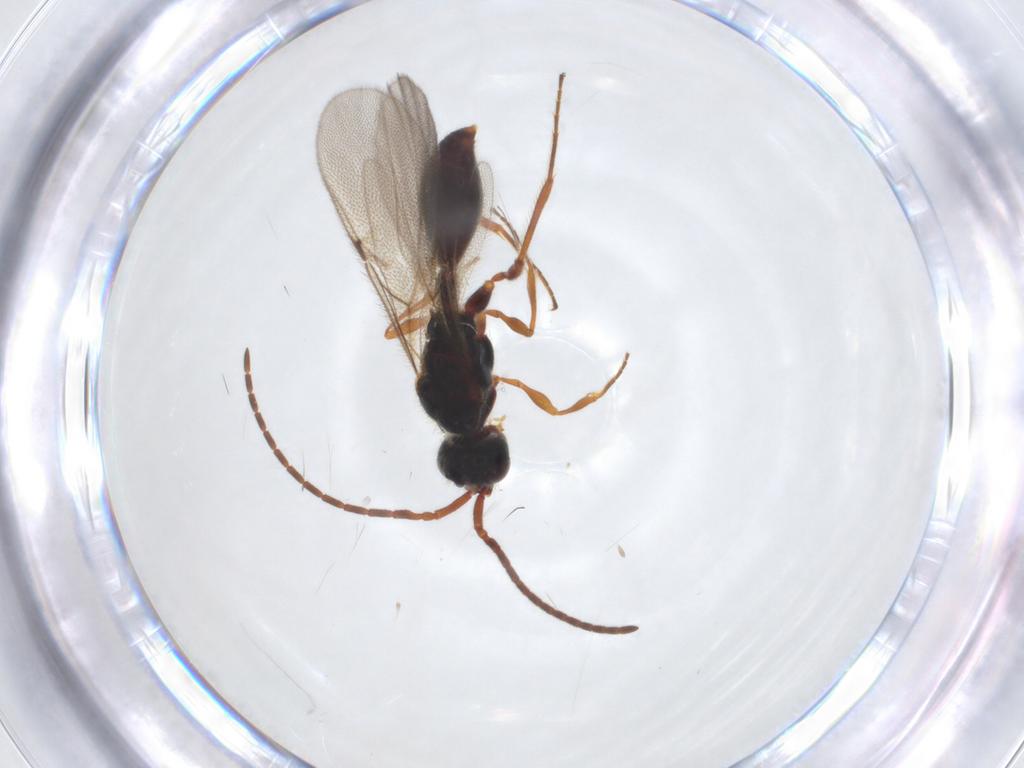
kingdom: Animalia
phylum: Arthropoda
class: Insecta
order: Hymenoptera
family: Diapriidae
